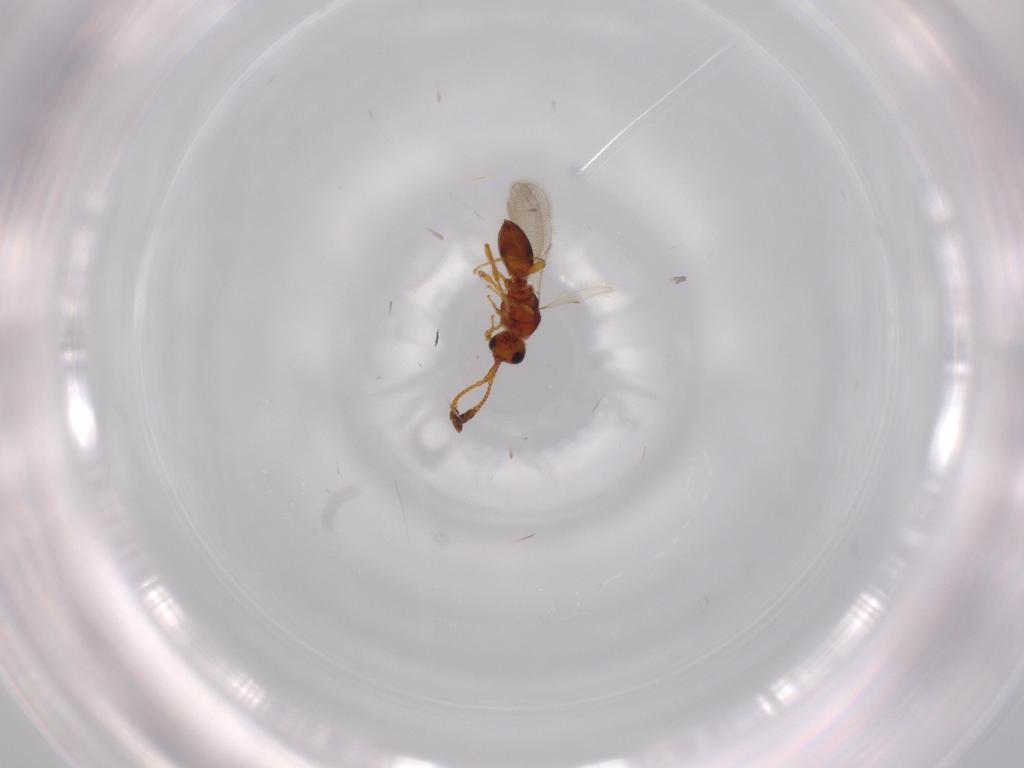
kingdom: Animalia
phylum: Arthropoda
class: Insecta
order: Hymenoptera
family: Diapriidae
